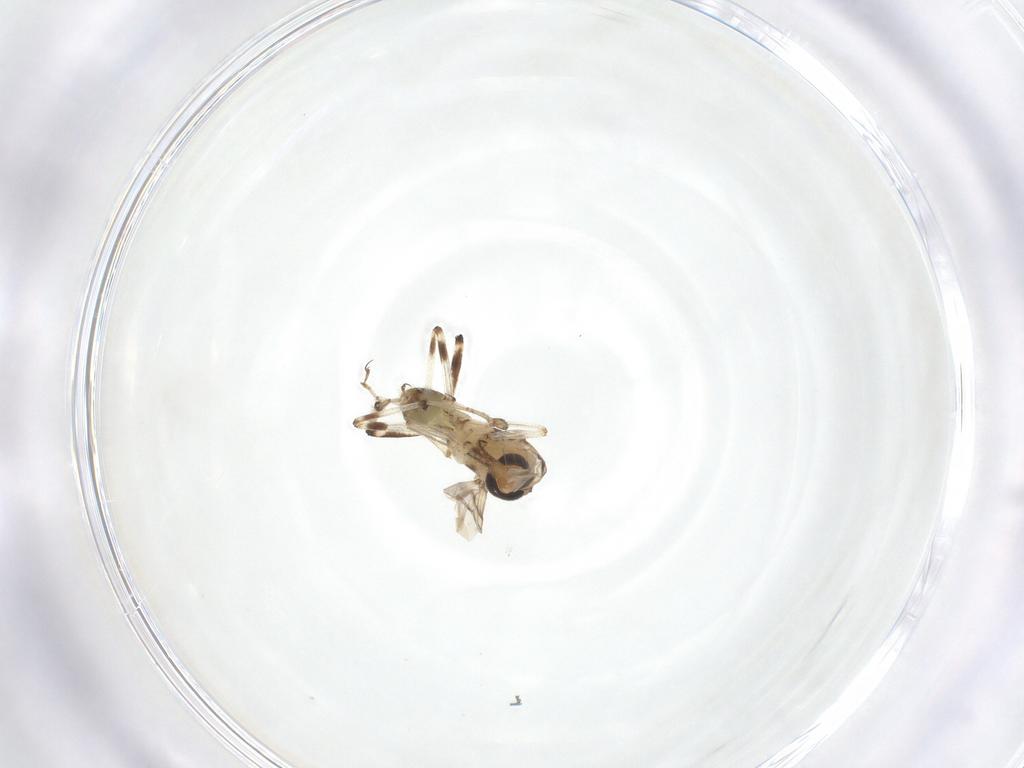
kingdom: Animalia
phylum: Arthropoda
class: Insecta
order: Diptera
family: Ceratopogonidae
